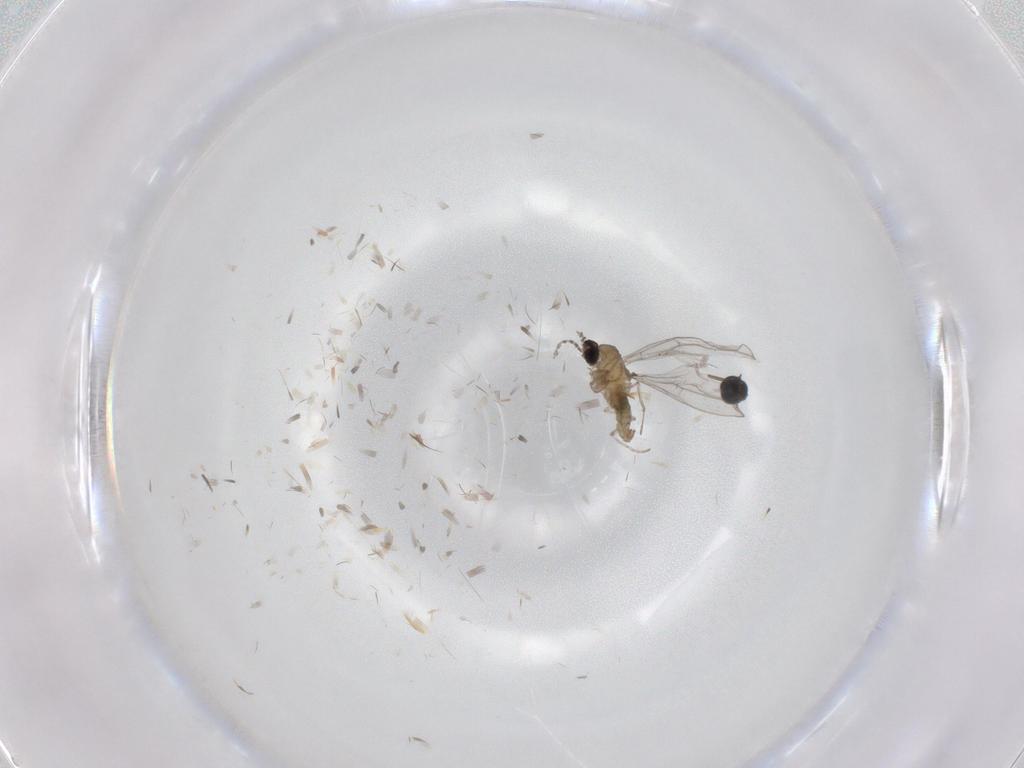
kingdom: Animalia
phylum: Arthropoda
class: Insecta
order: Diptera
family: Cecidomyiidae
